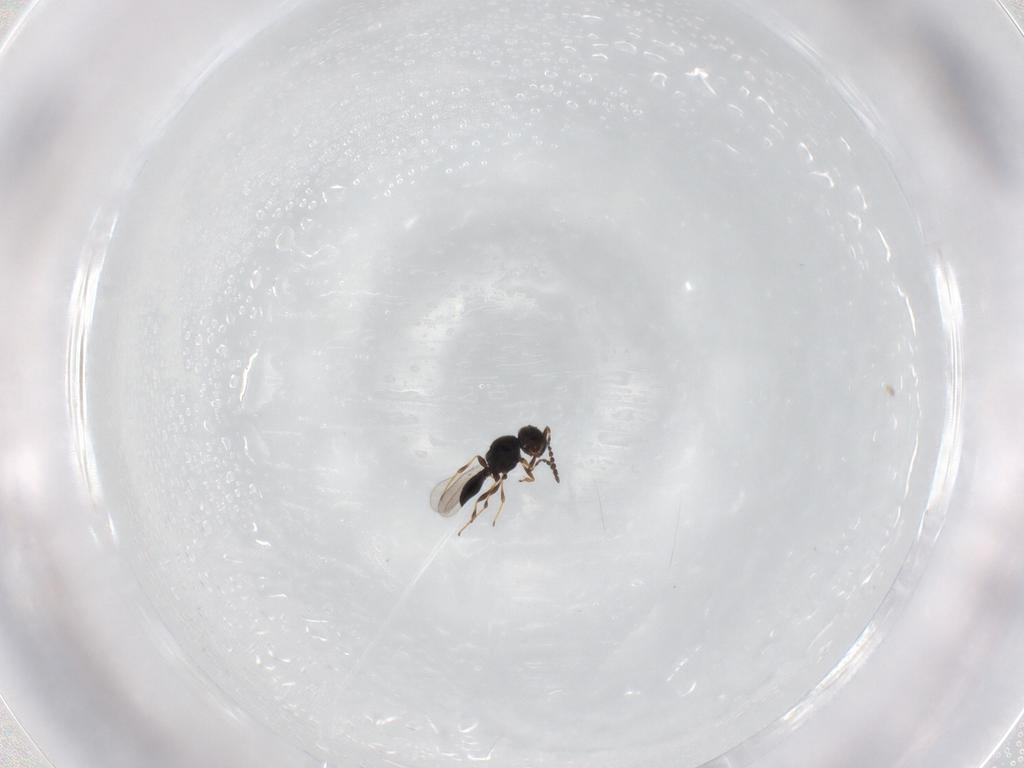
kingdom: Animalia
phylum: Arthropoda
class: Insecta
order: Hymenoptera
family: Platygastridae
